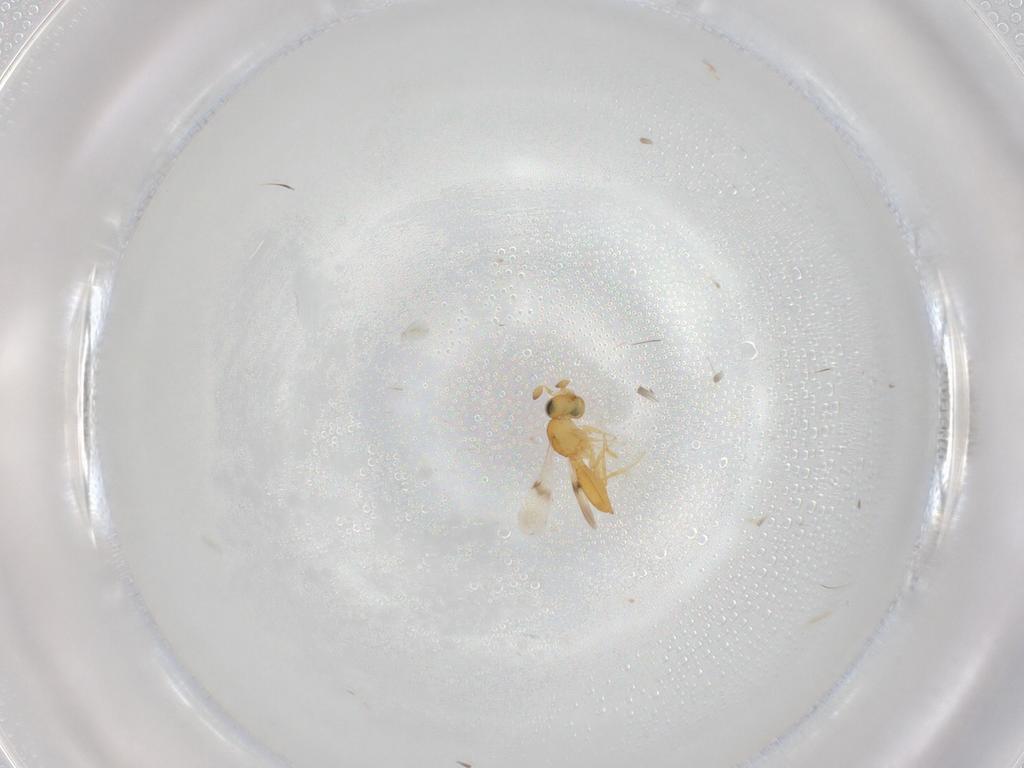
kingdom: Animalia
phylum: Arthropoda
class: Insecta
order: Hymenoptera
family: Scelionidae
